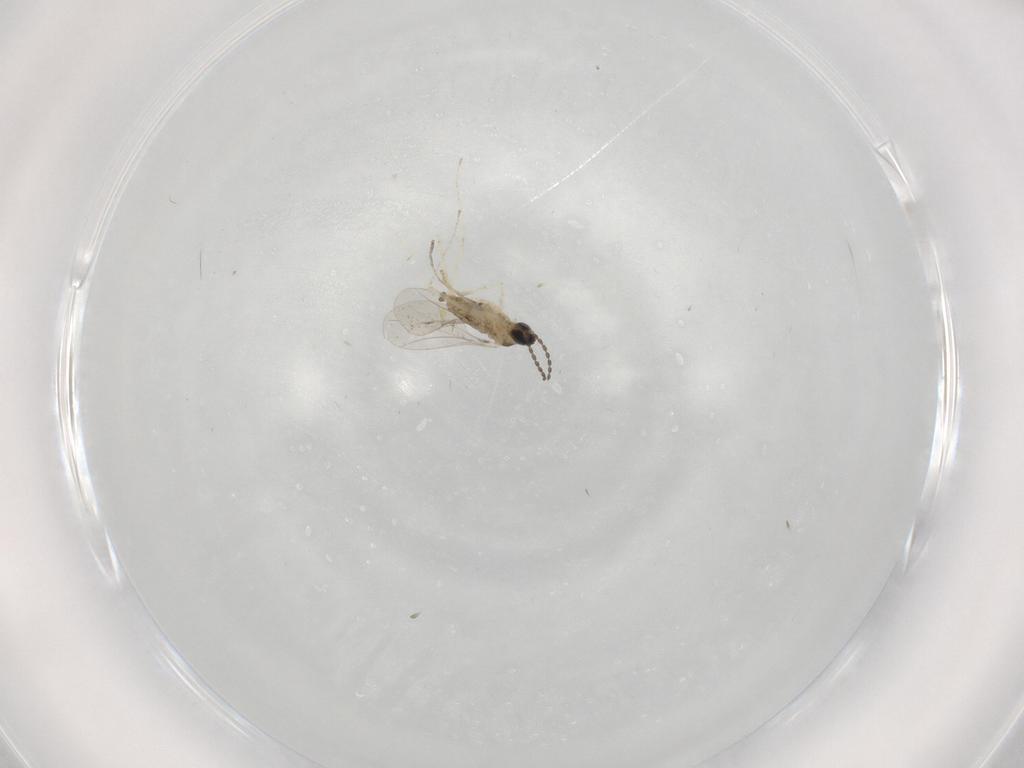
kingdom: Animalia
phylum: Arthropoda
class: Insecta
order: Diptera
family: Cecidomyiidae
